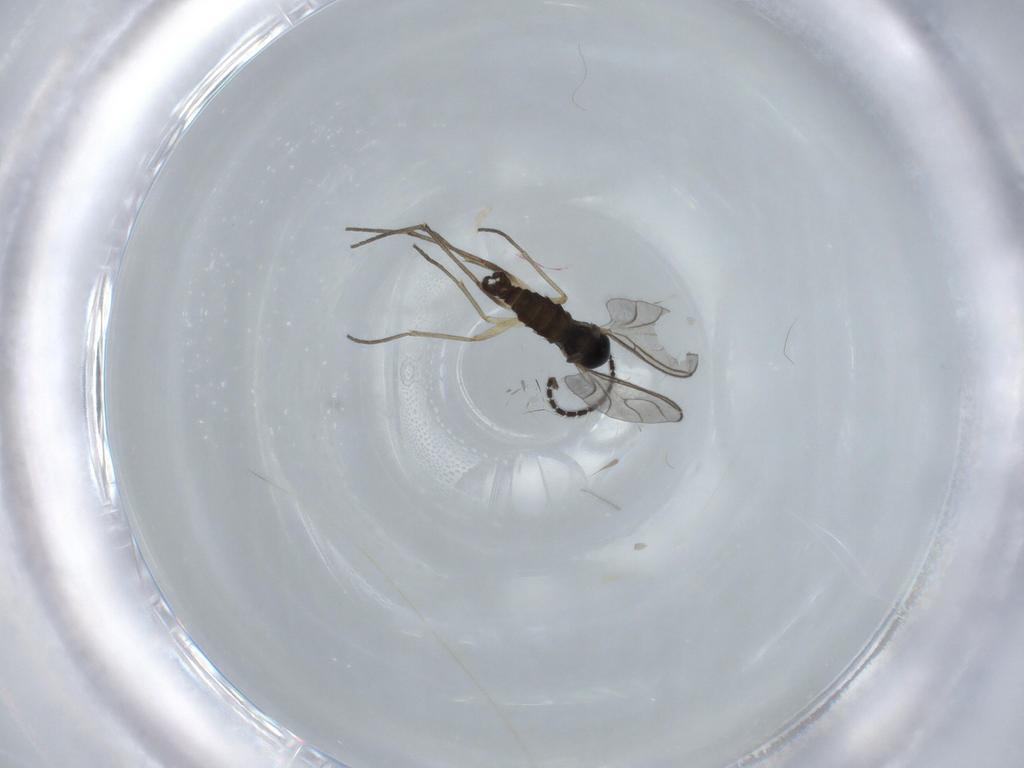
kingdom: Animalia
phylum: Arthropoda
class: Insecta
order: Diptera
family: Sciaridae
